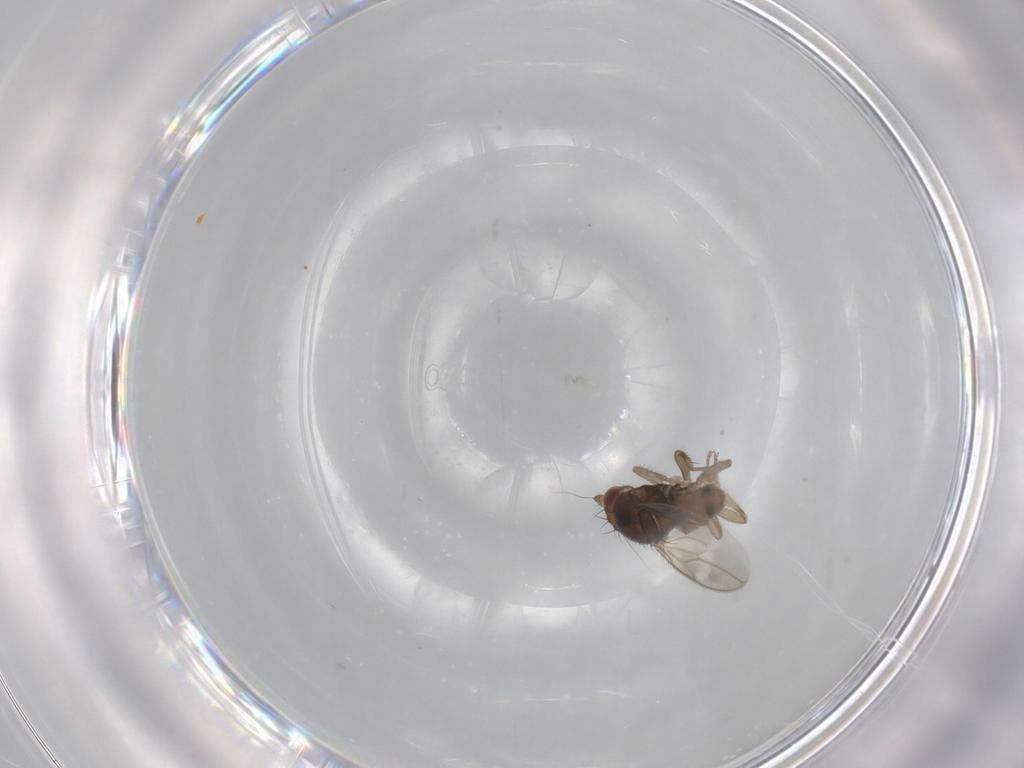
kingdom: Animalia
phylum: Arthropoda
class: Insecta
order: Diptera
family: Sphaeroceridae
